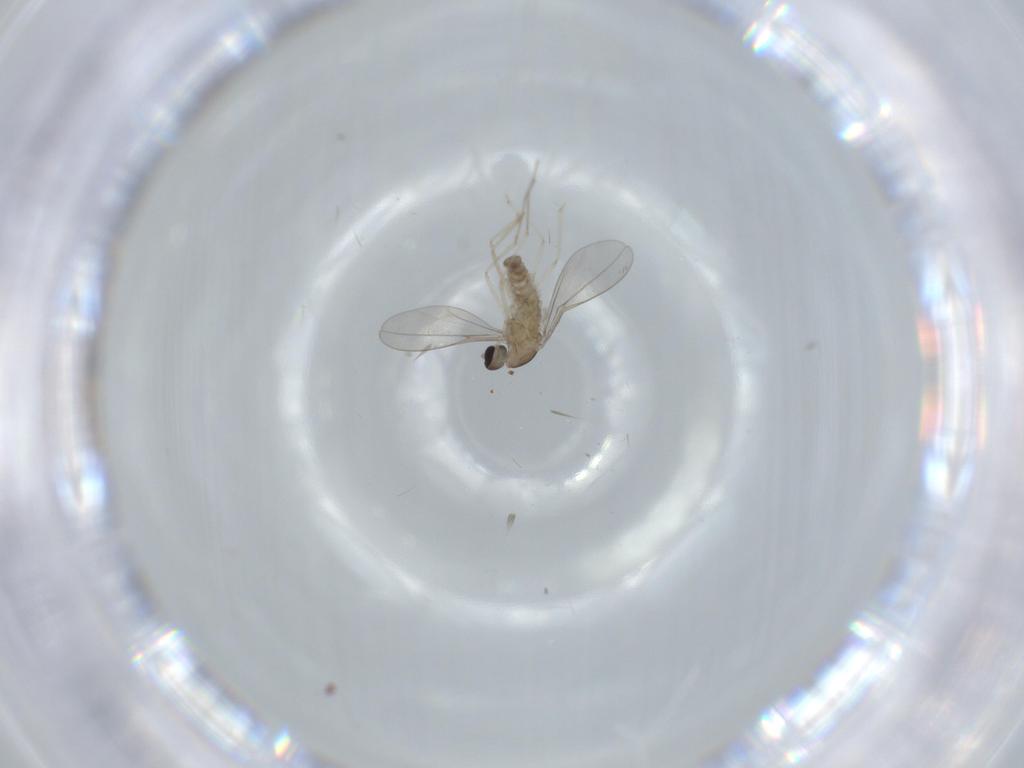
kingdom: Animalia
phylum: Arthropoda
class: Insecta
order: Diptera
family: Cecidomyiidae
